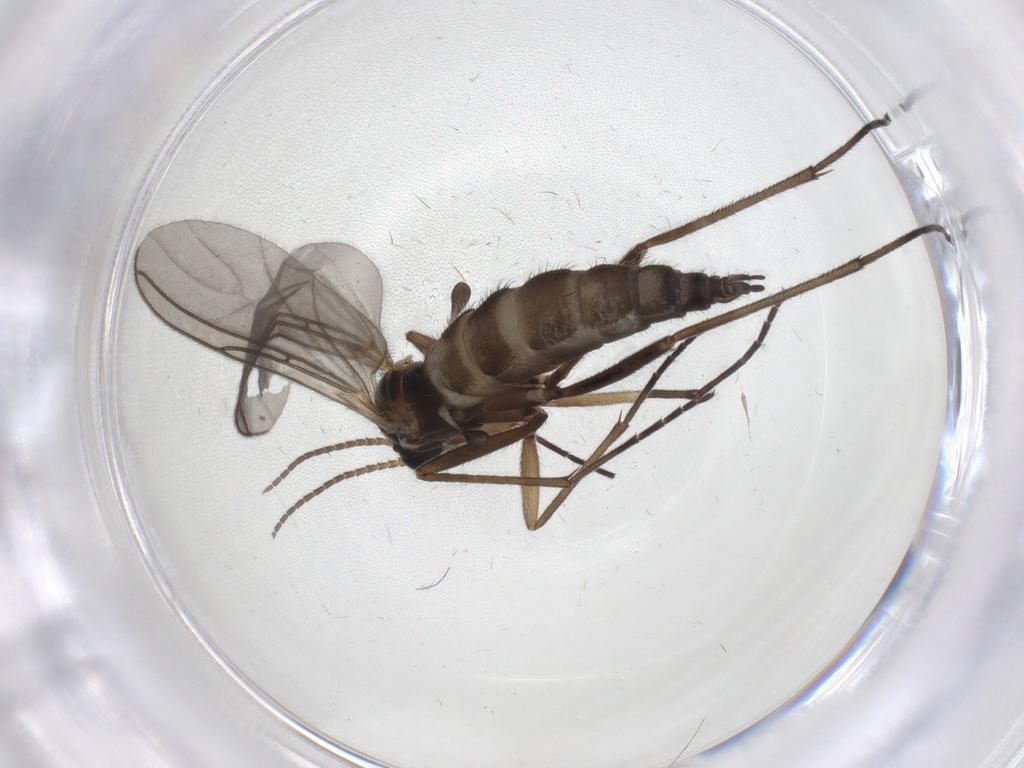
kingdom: Animalia
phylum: Arthropoda
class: Insecta
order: Diptera
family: Sciaridae
